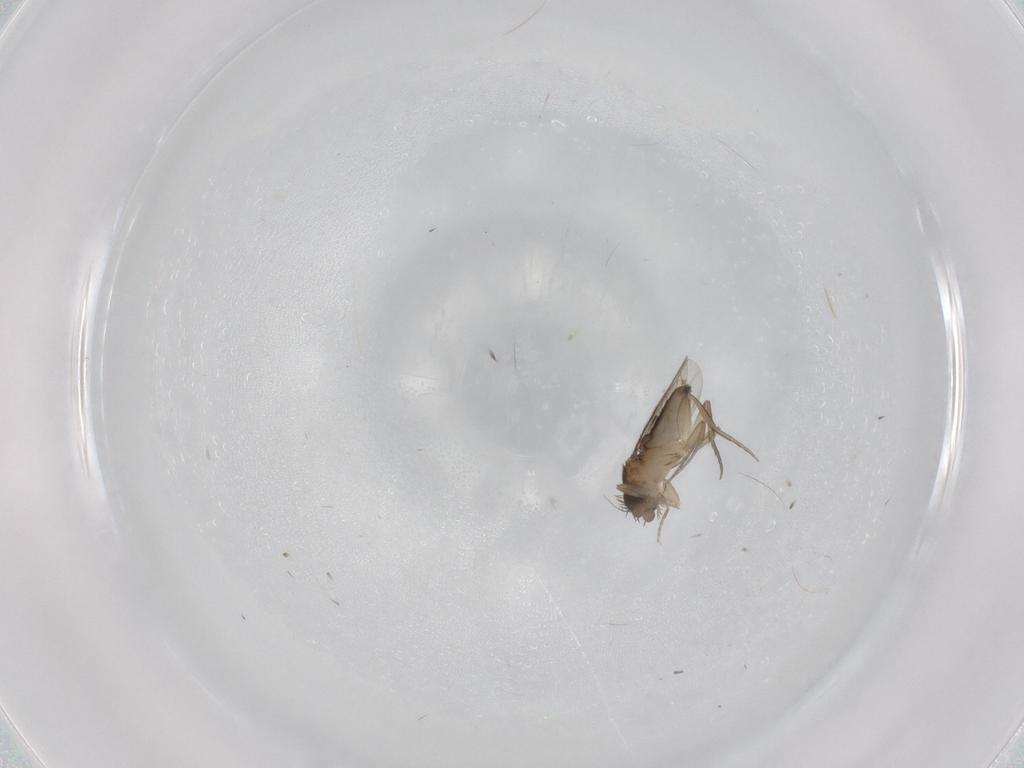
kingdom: Animalia
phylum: Arthropoda
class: Insecta
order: Diptera
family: Phoridae
